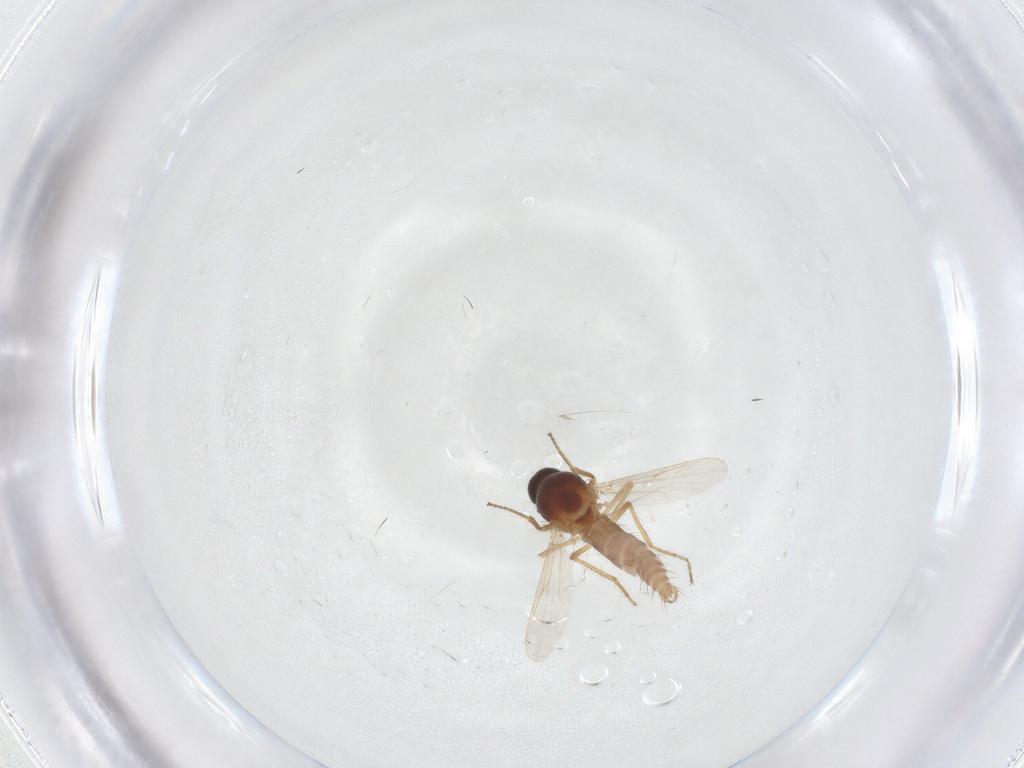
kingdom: Animalia
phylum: Arthropoda
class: Insecta
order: Diptera
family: Ceratopogonidae
